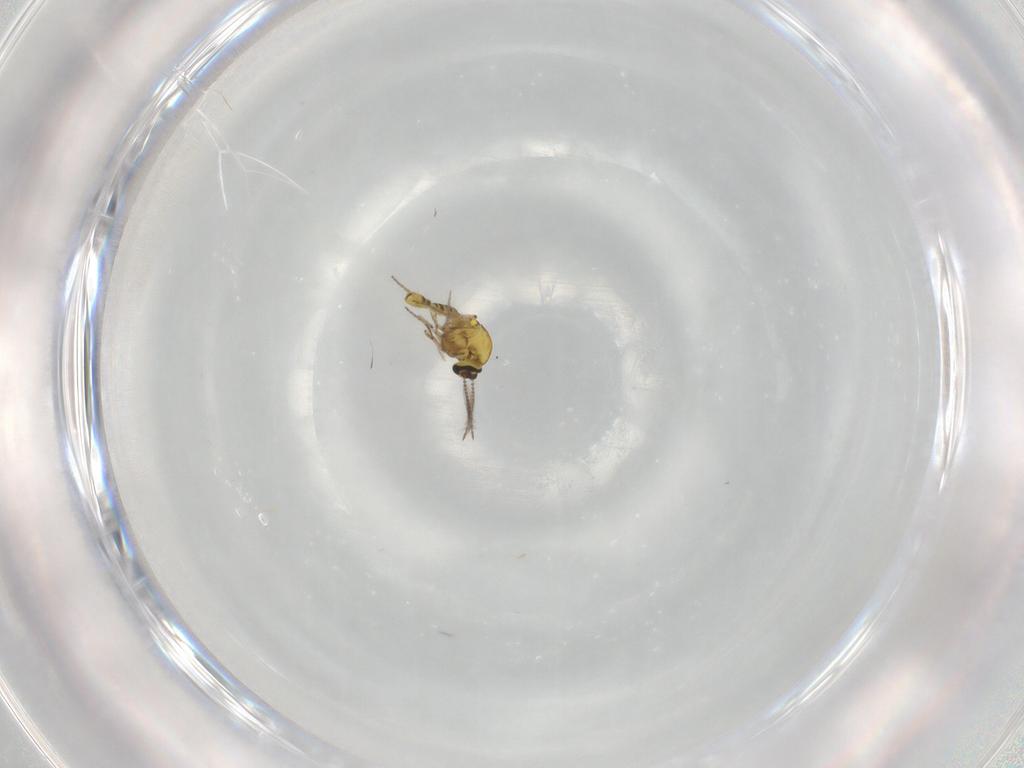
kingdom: Animalia
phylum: Arthropoda
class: Insecta
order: Diptera
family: Ceratopogonidae
